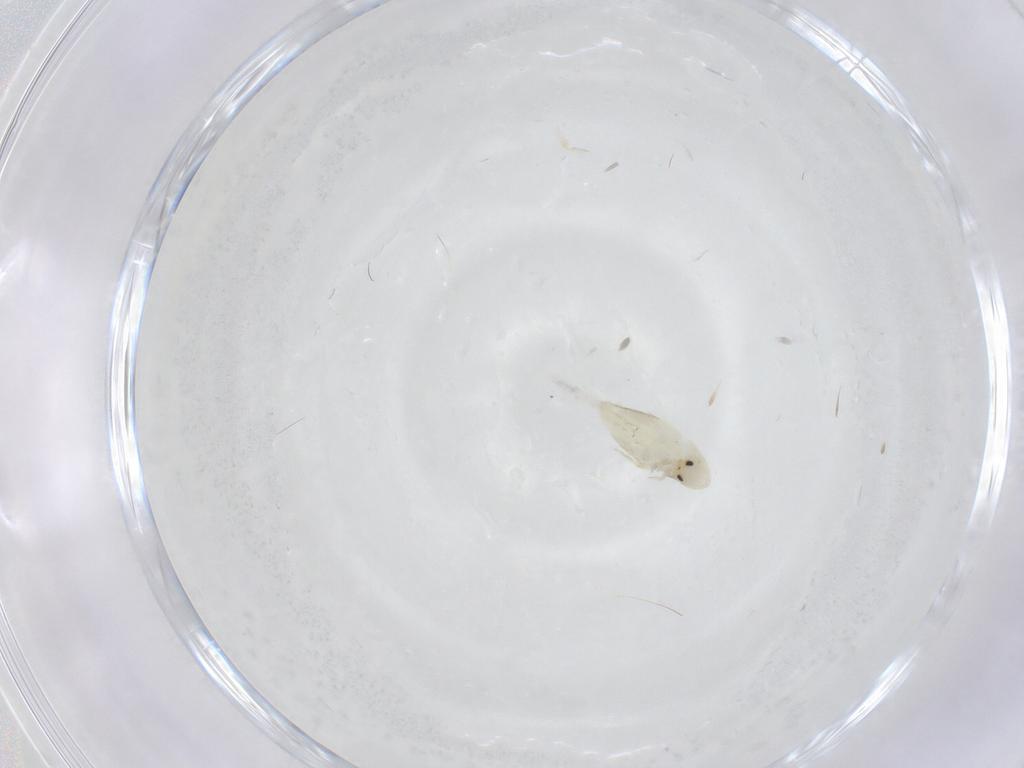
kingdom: Animalia
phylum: Arthropoda
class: Collembola
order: Entomobryomorpha
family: Entomobryidae
